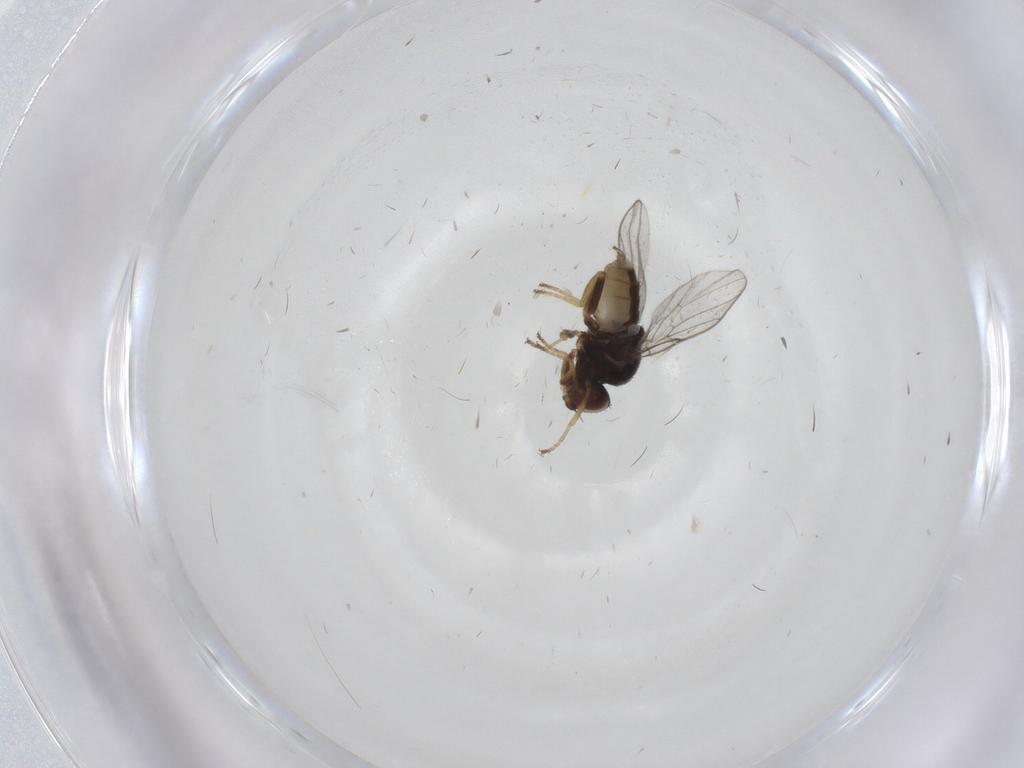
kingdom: Animalia
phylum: Arthropoda
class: Insecta
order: Diptera
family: Chloropidae
